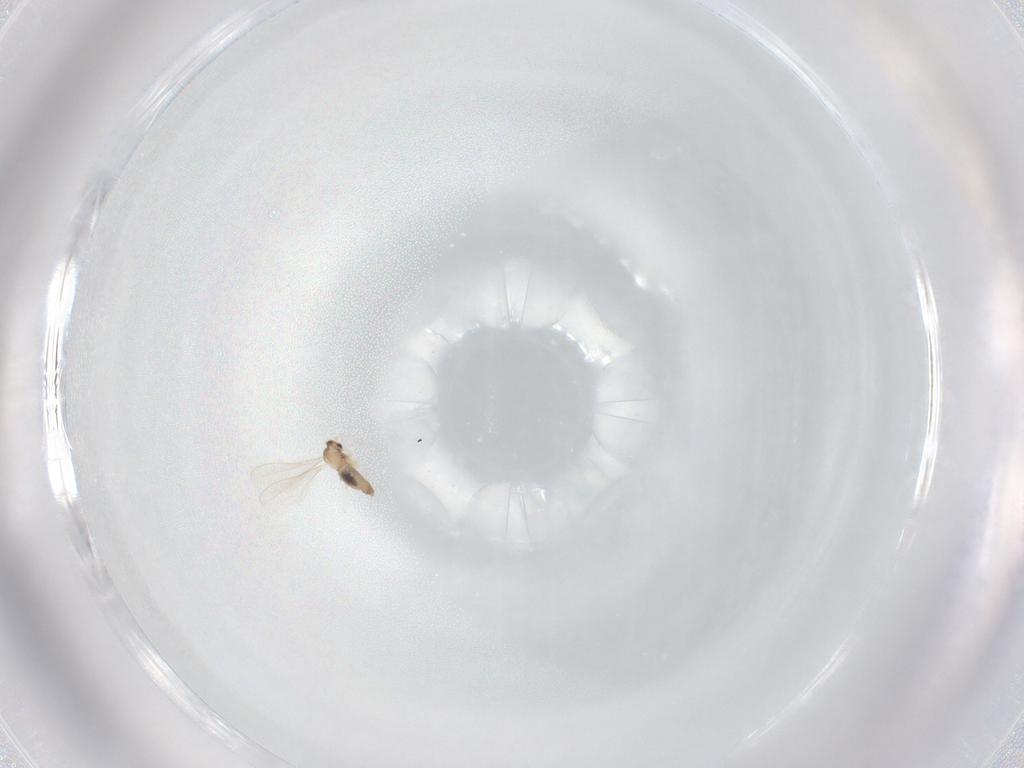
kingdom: Animalia
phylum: Arthropoda
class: Insecta
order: Diptera
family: Cecidomyiidae
